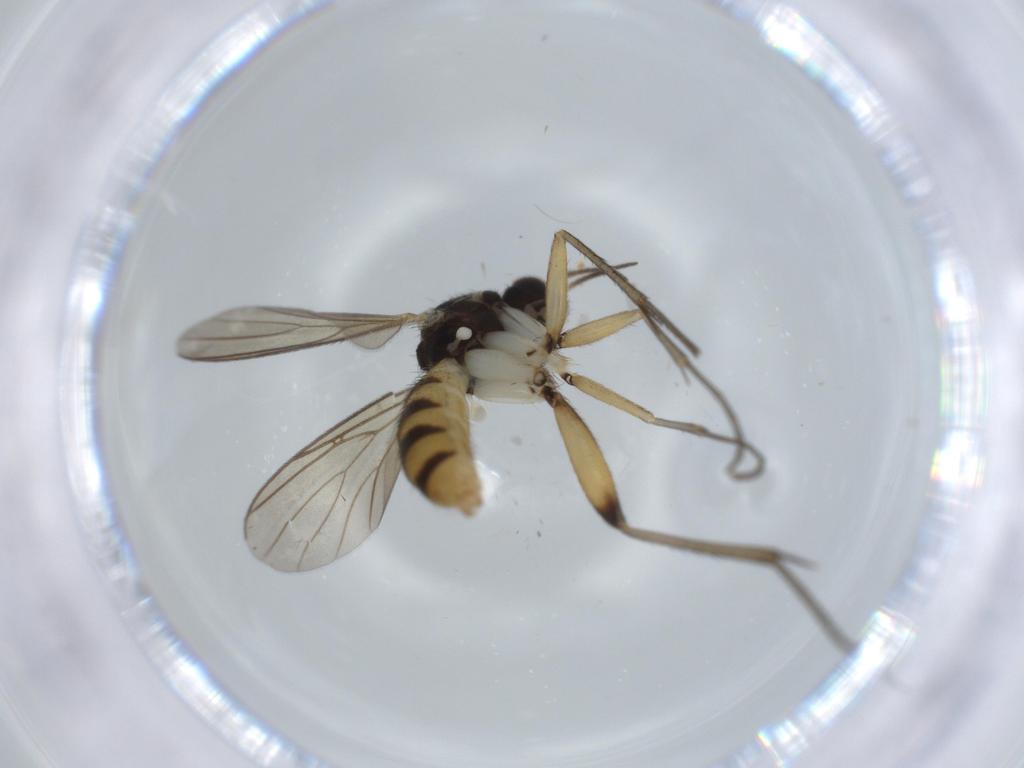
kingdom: Animalia
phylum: Arthropoda
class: Insecta
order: Diptera
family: Mycetophilidae
